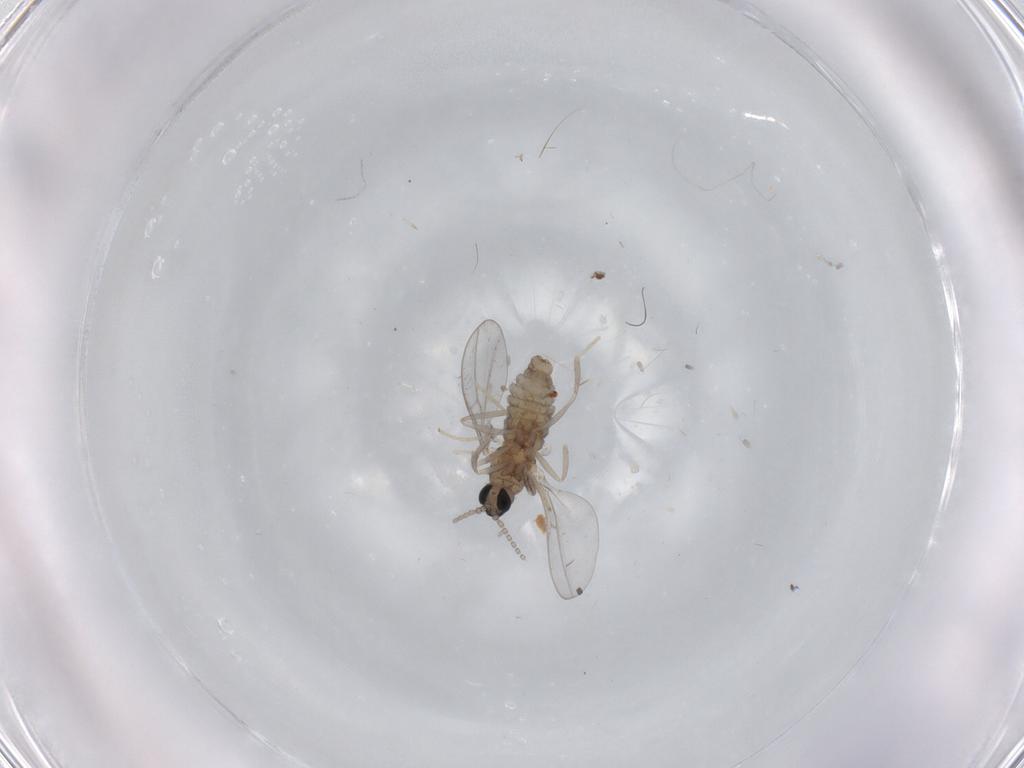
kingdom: Animalia
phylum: Arthropoda
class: Insecta
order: Diptera
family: Cecidomyiidae
